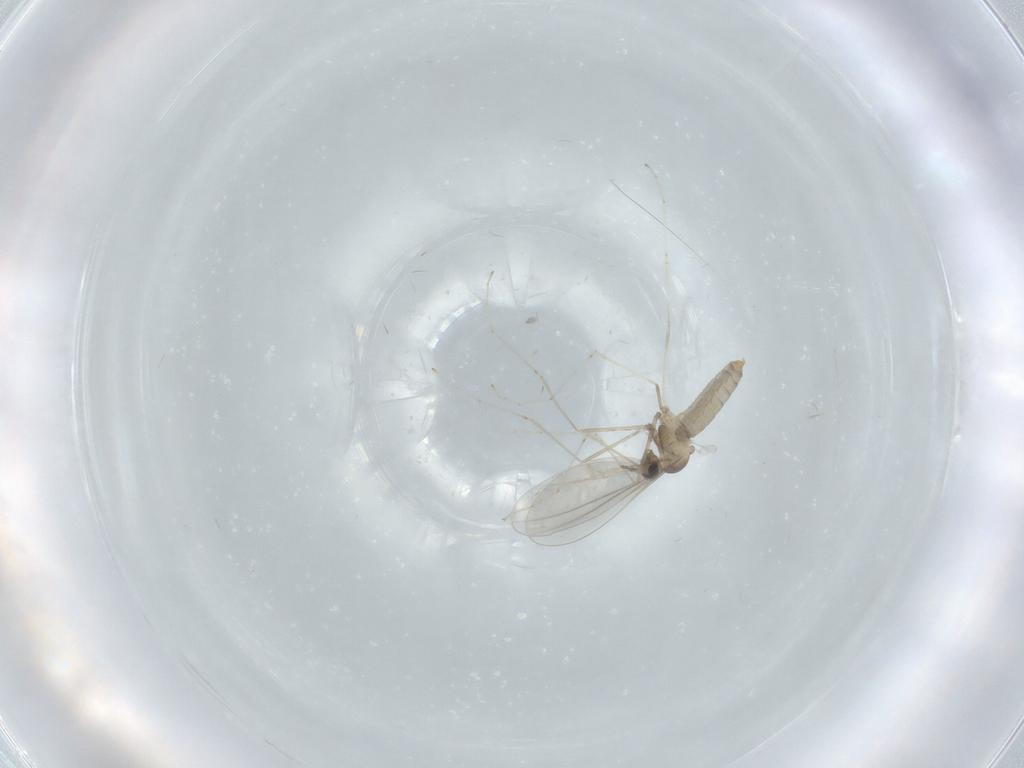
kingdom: Animalia
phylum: Arthropoda
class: Insecta
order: Diptera
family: Cecidomyiidae
